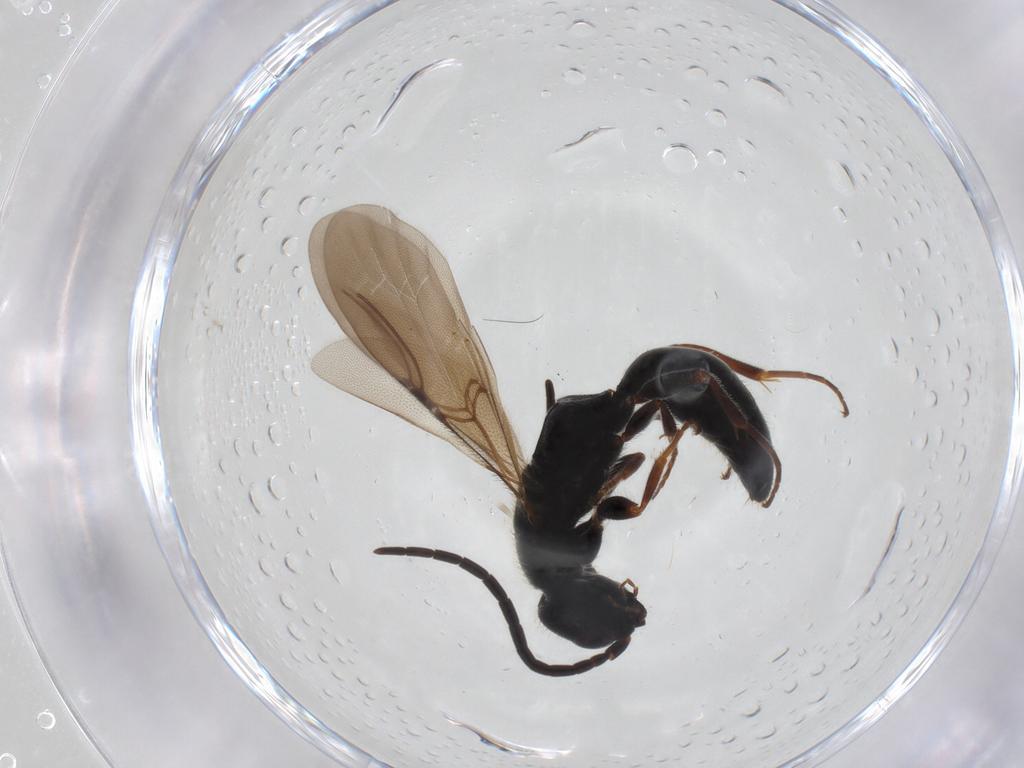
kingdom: Animalia
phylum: Arthropoda
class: Insecta
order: Hymenoptera
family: Bethylidae
